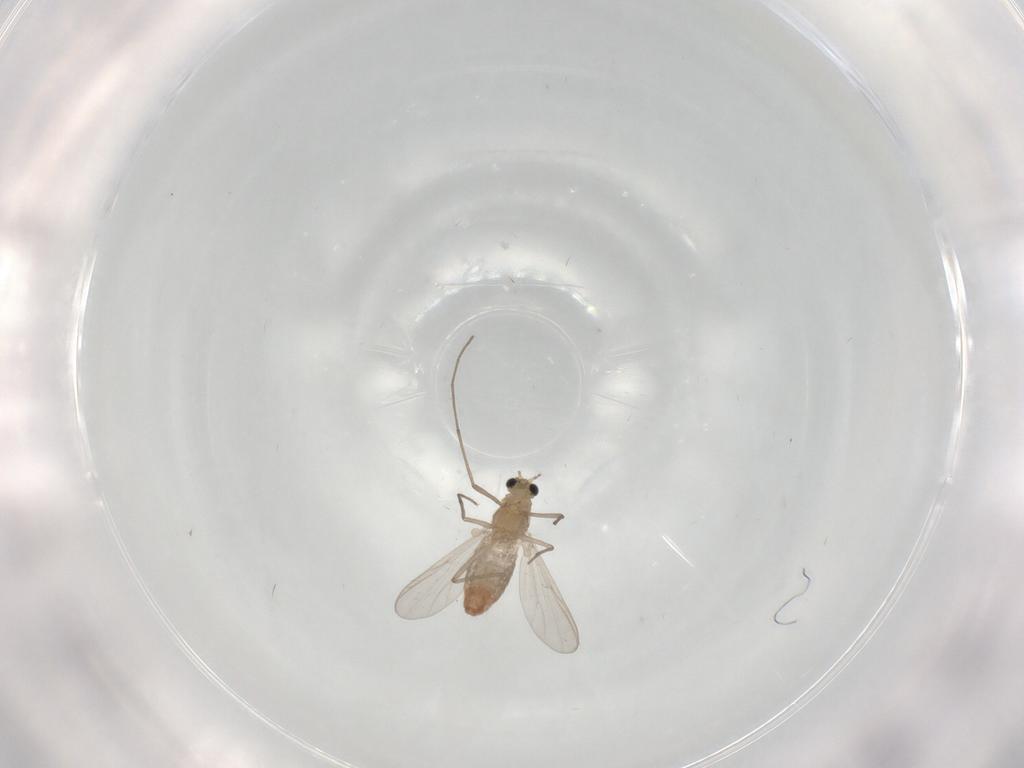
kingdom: Animalia
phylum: Arthropoda
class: Insecta
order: Diptera
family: Chironomidae
